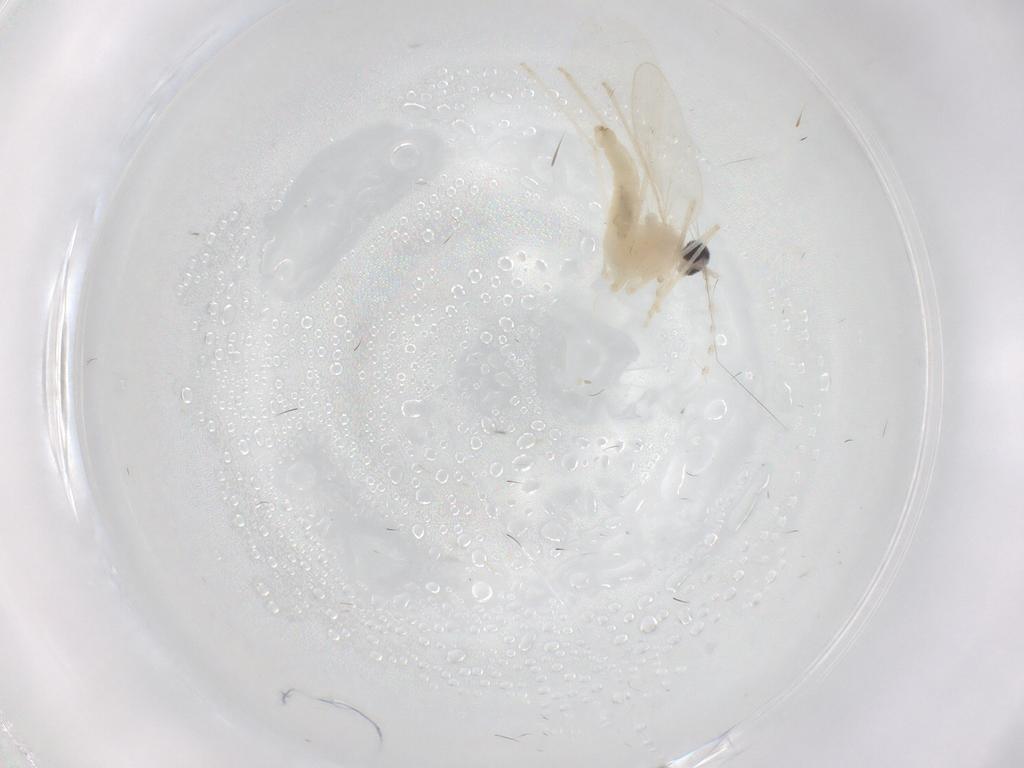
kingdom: Animalia
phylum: Arthropoda
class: Insecta
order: Diptera
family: Cecidomyiidae
